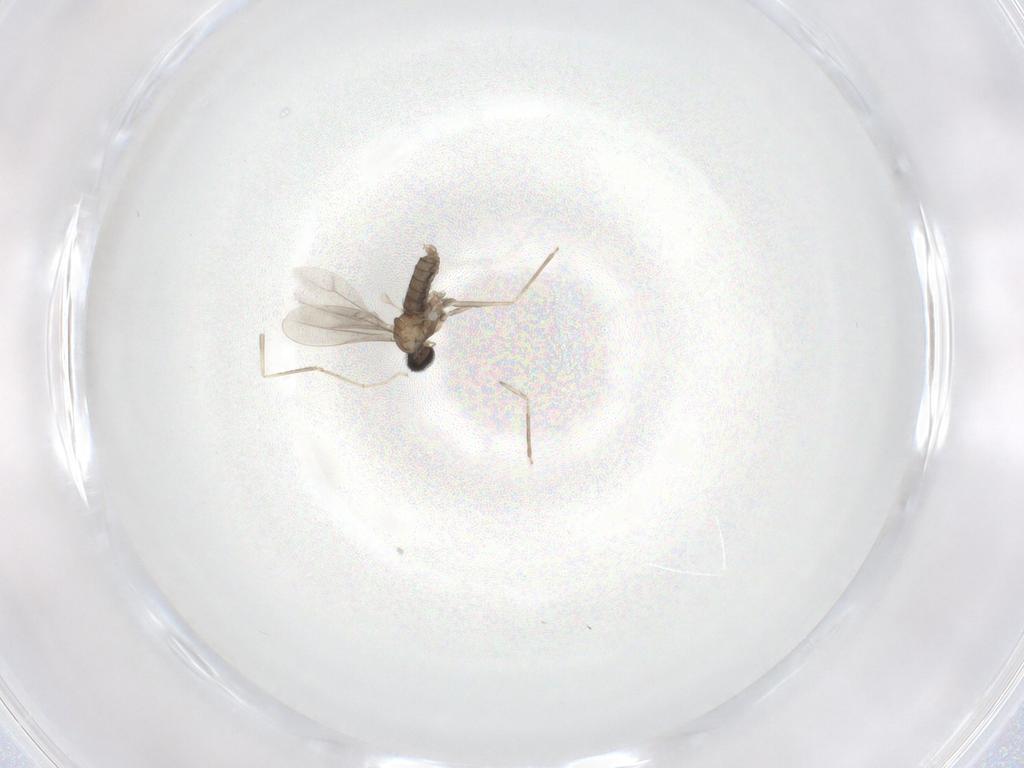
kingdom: Animalia
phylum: Arthropoda
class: Insecta
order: Diptera
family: Cecidomyiidae
